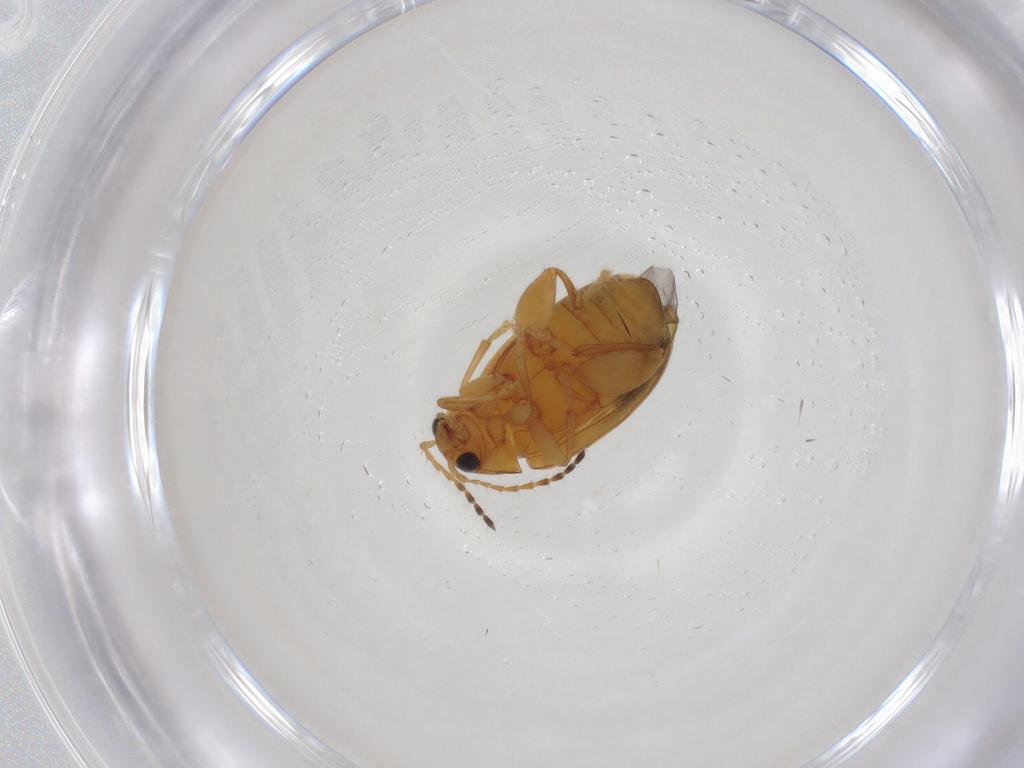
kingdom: Animalia
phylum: Arthropoda
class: Insecta
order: Coleoptera
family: Chrysomelidae
